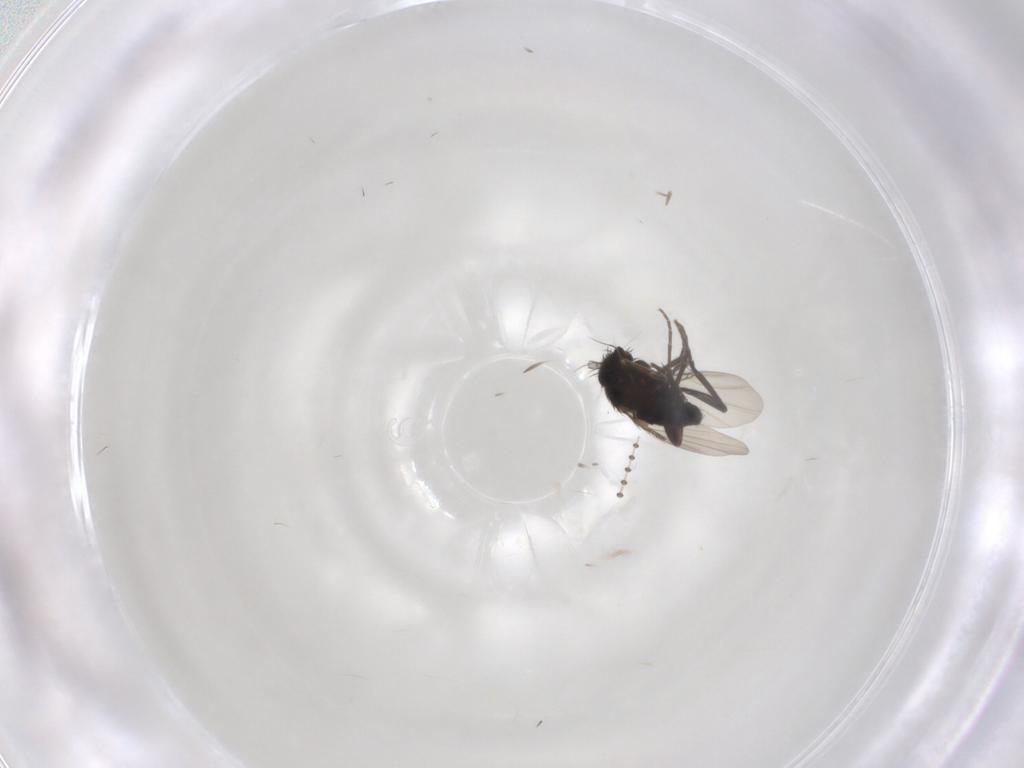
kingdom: Animalia
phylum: Arthropoda
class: Insecta
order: Diptera
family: Phoridae
